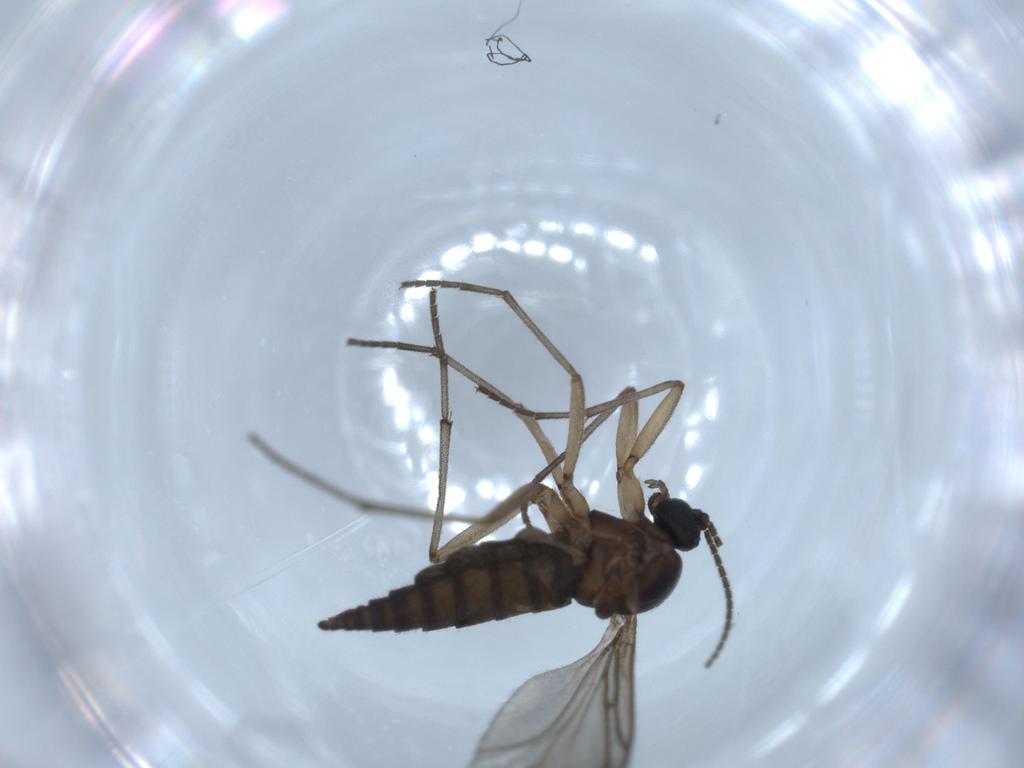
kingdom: Animalia
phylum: Arthropoda
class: Insecta
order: Diptera
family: Sciaridae
